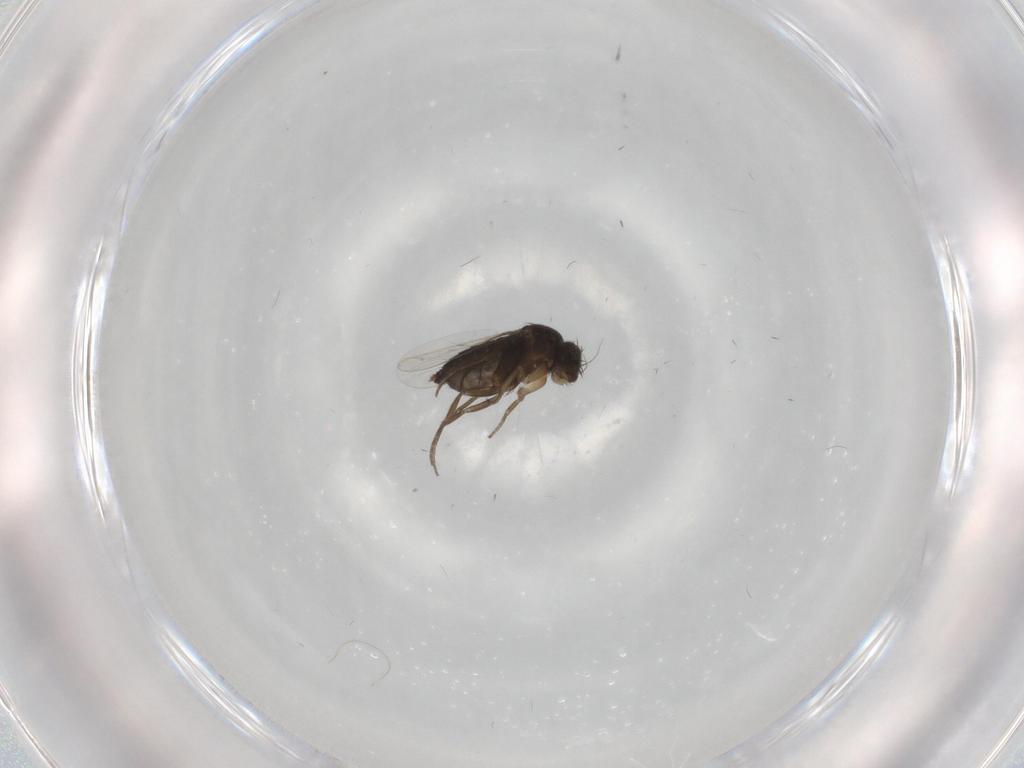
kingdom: Animalia
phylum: Arthropoda
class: Insecta
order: Diptera
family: Phoridae
